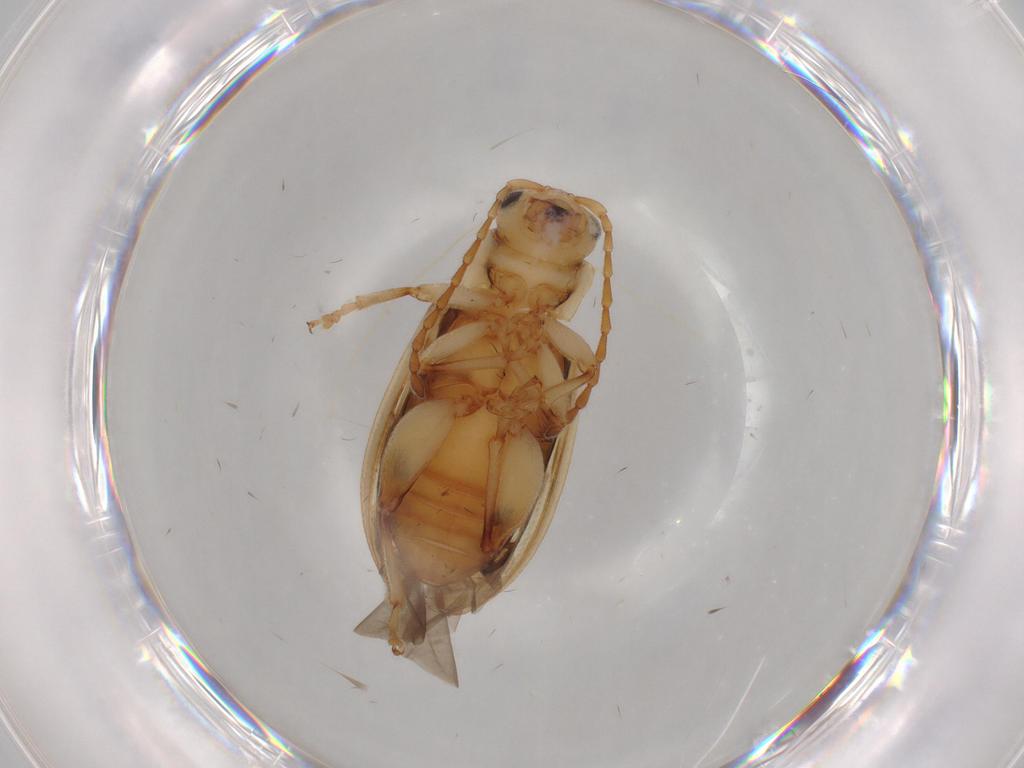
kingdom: Animalia
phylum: Arthropoda
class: Insecta
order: Coleoptera
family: Chrysomelidae
